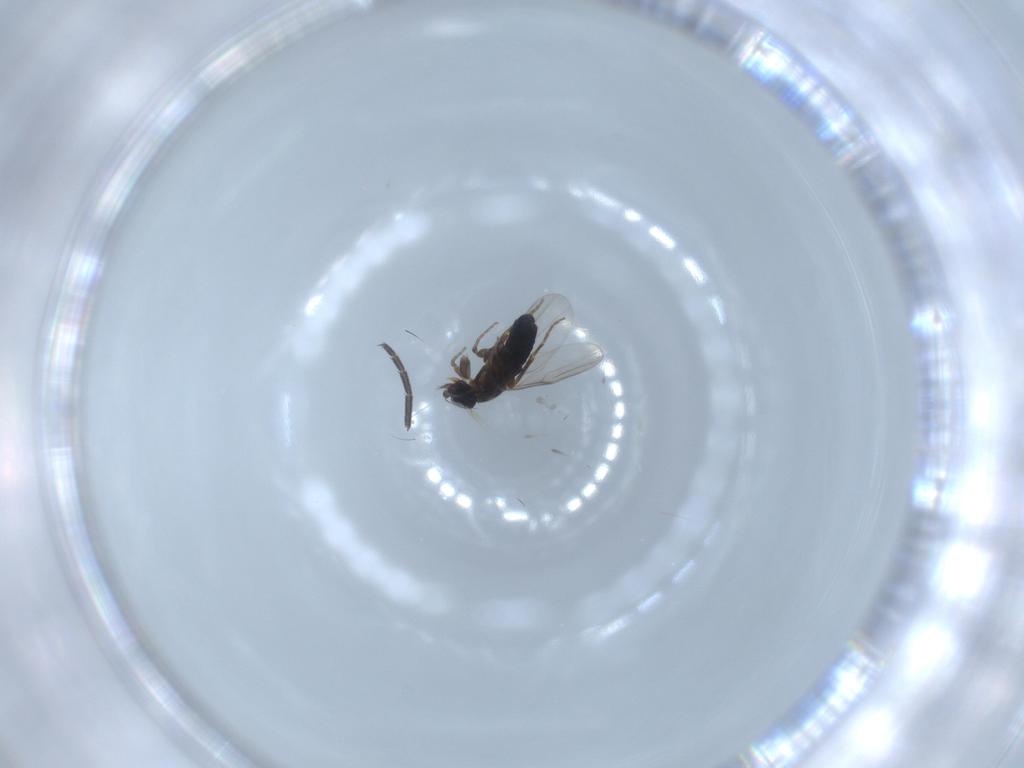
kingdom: Animalia
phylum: Arthropoda
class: Insecta
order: Diptera
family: Phoridae
